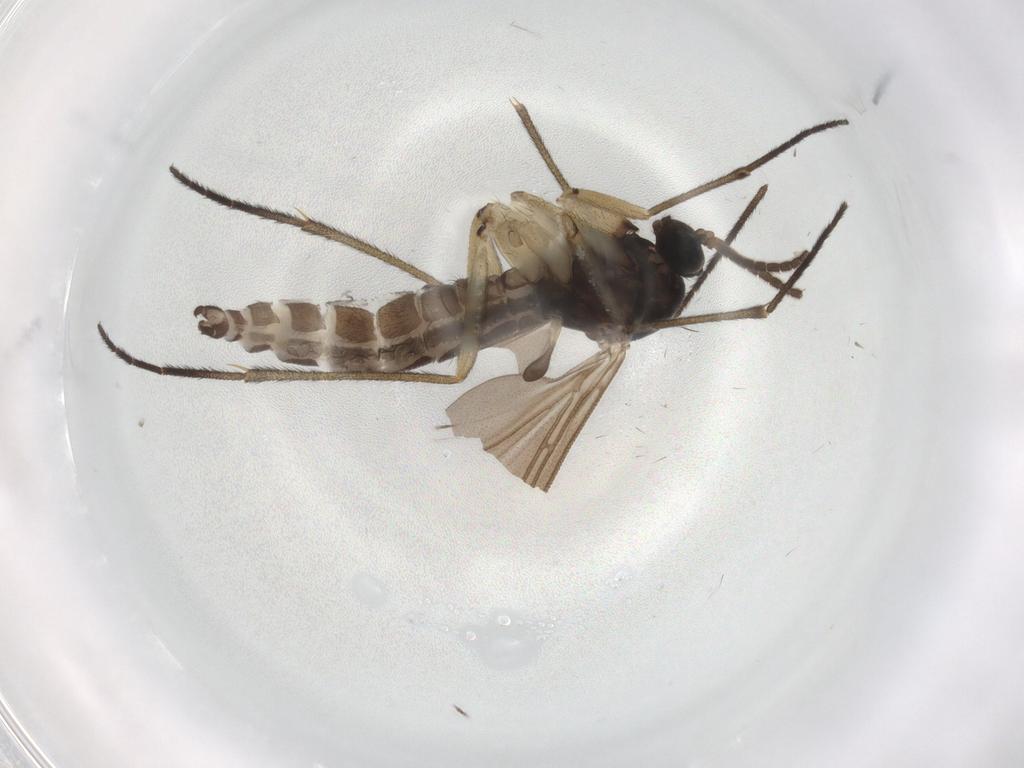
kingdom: Animalia
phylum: Arthropoda
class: Insecta
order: Diptera
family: Sciaridae
